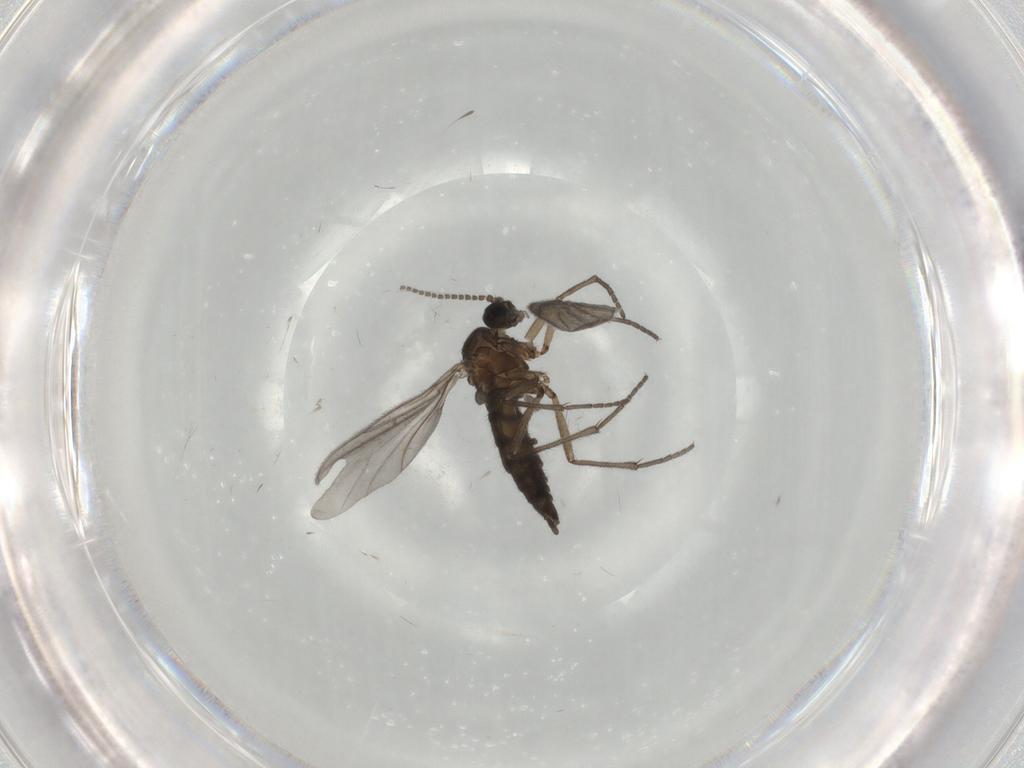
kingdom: Animalia
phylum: Arthropoda
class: Insecta
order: Diptera
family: Sciaridae
